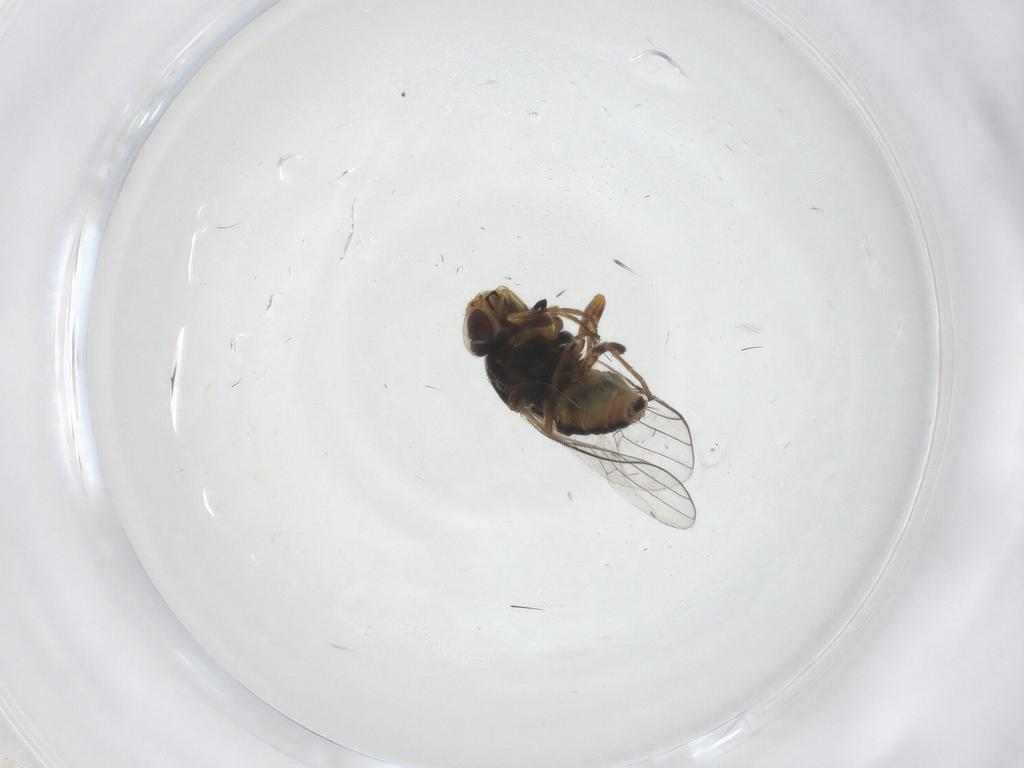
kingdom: Animalia
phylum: Arthropoda
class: Insecta
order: Diptera
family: Chloropidae
